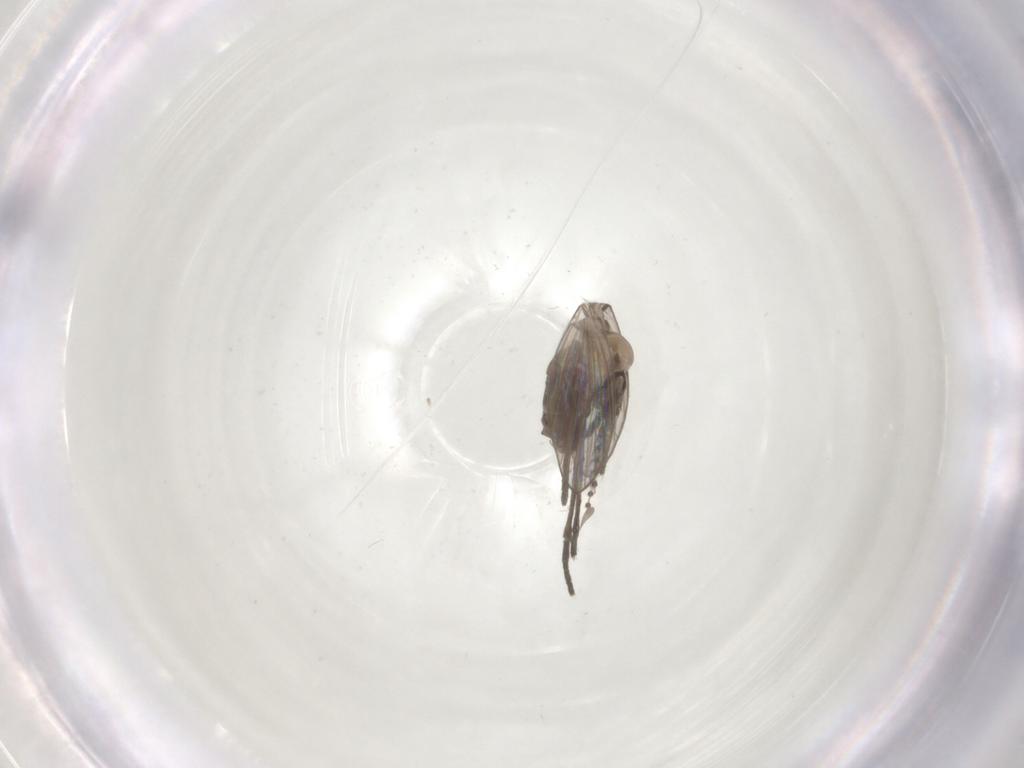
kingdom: Animalia
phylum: Arthropoda
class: Insecta
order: Diptera
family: Psychodidae
